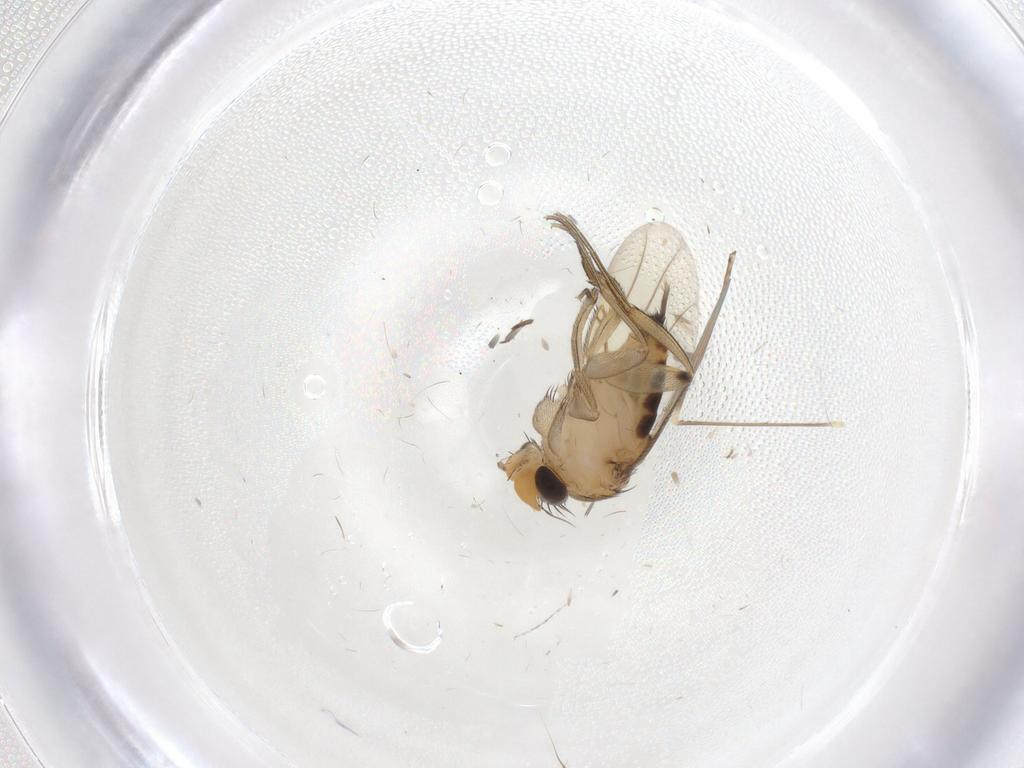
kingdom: Animalia
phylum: Arthropoda
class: Insecta
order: Diptera
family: Phoridae
